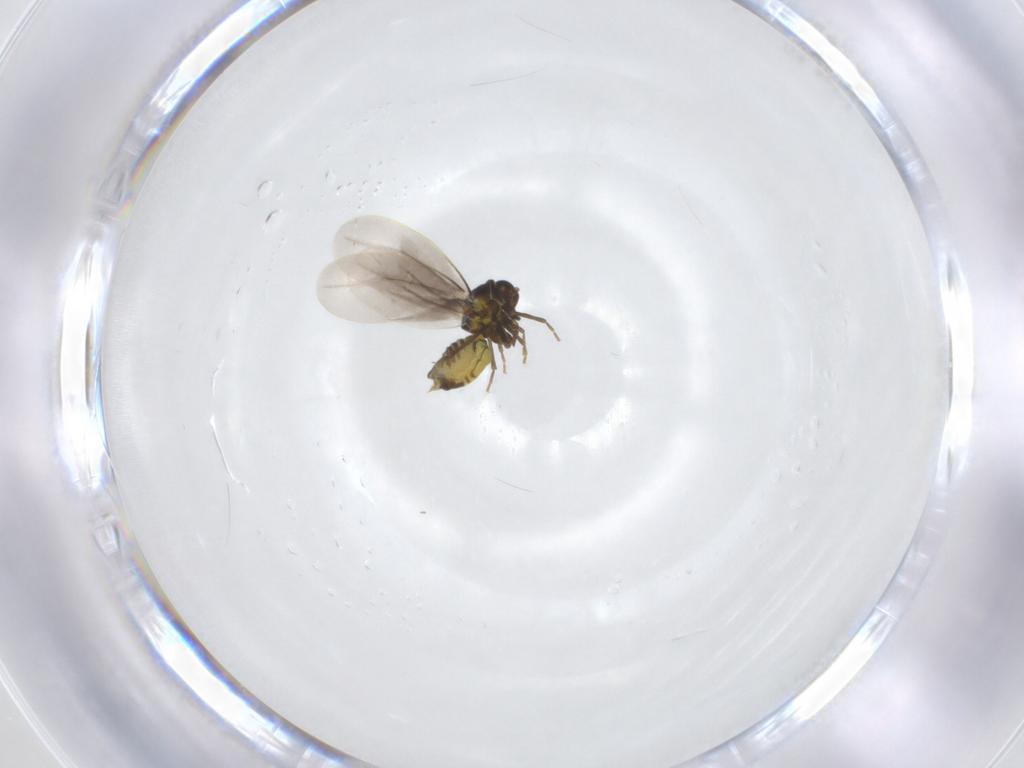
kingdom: Animalia
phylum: Arthropoda
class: Insecta
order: Hemiptera
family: Aleyrodidae
